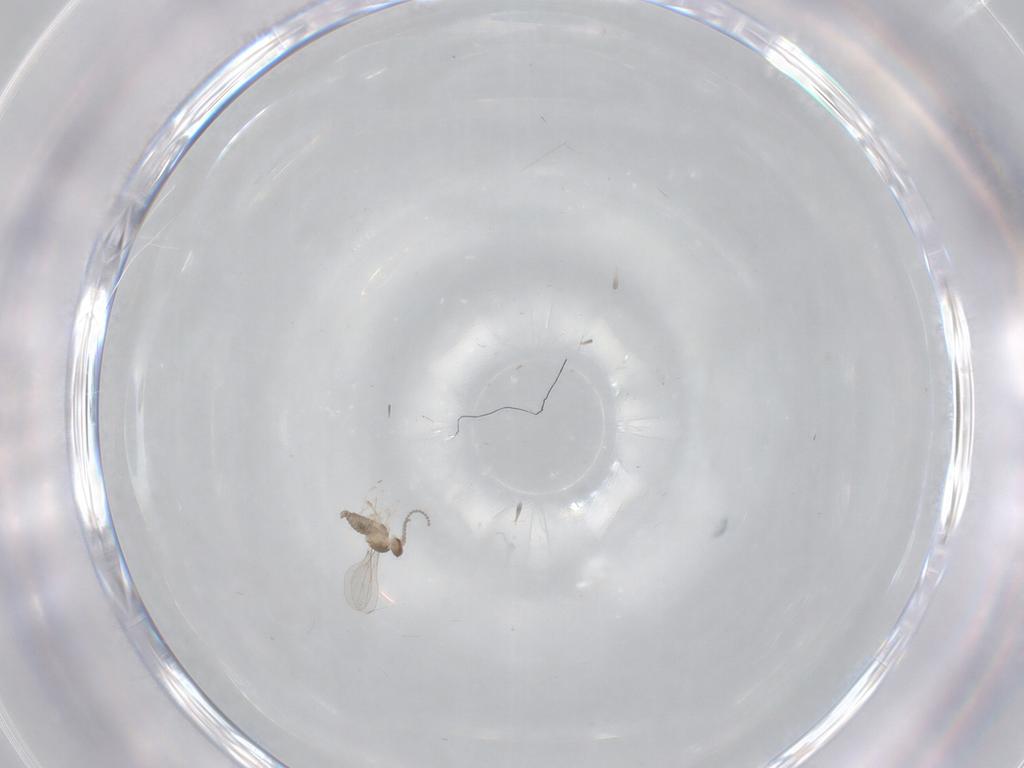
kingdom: Animalia
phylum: Arthropoda
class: Insecta
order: Diptera
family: Cecidomyiidae
